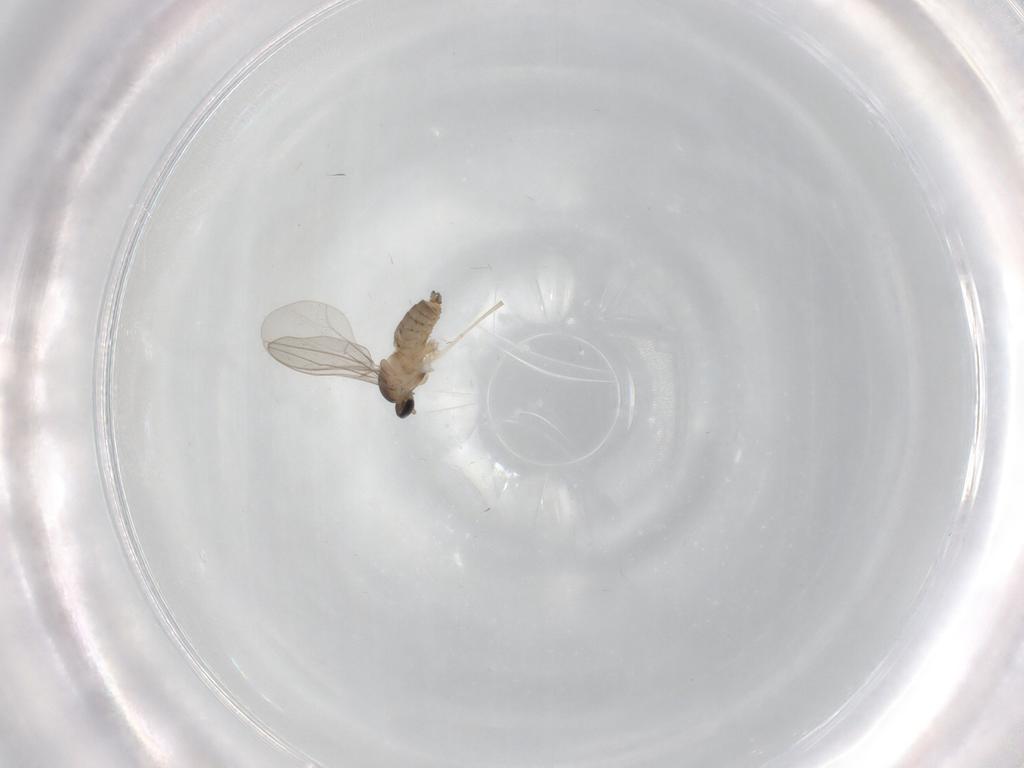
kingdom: Animalia
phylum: Arthropoda
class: Insecta
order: Diptera
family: Cecidomyiidae
